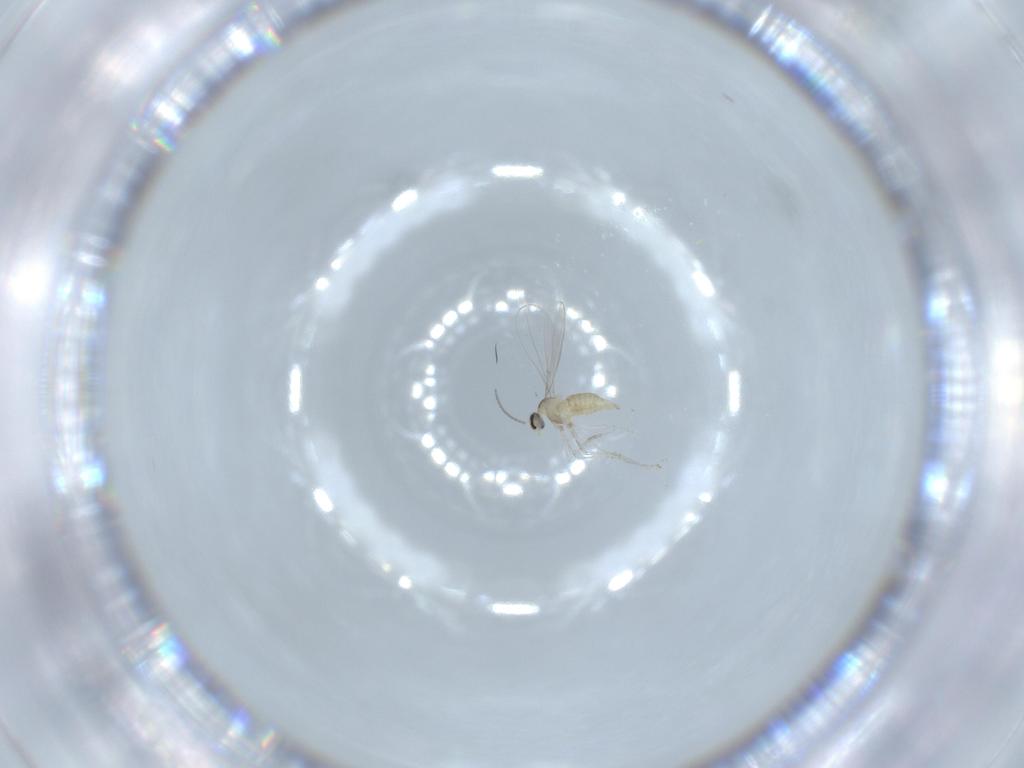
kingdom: Animalia
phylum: Arthropoda
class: Insecta
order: Diptera
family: Cecidomyiidae
